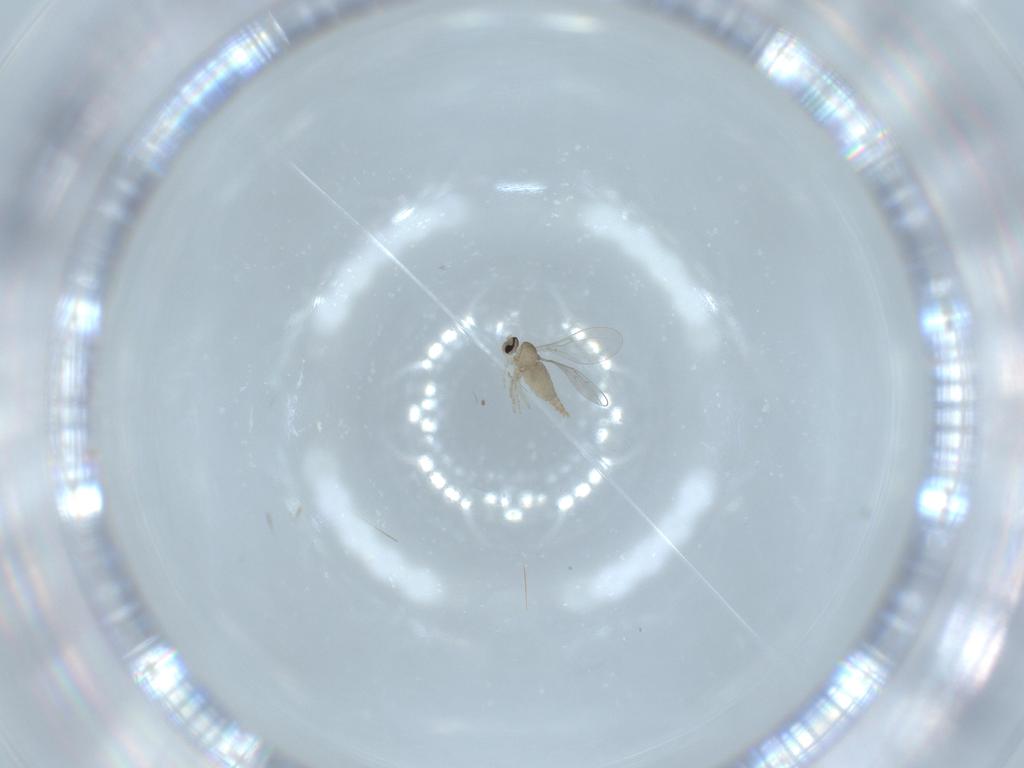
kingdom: Animalia
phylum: Arthropoda
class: Insecta
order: Diptera
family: Cecidomyiidae
